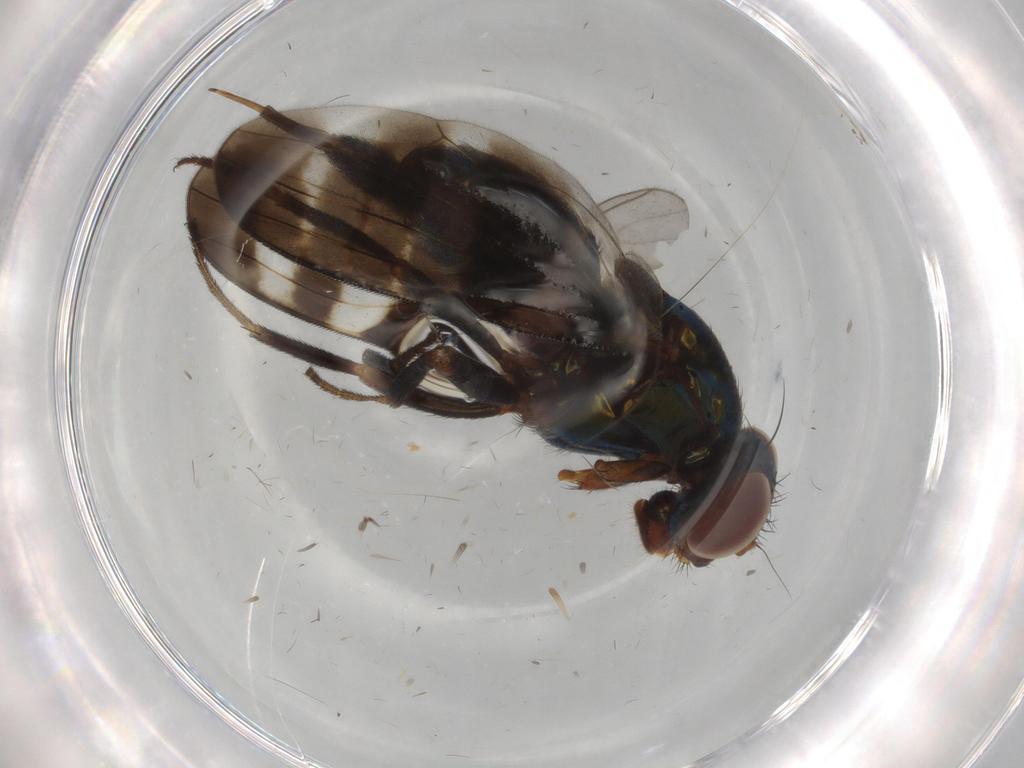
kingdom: Animalia
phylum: Arthropoda
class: Insecta
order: Diptera
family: Cecidomyiidae
